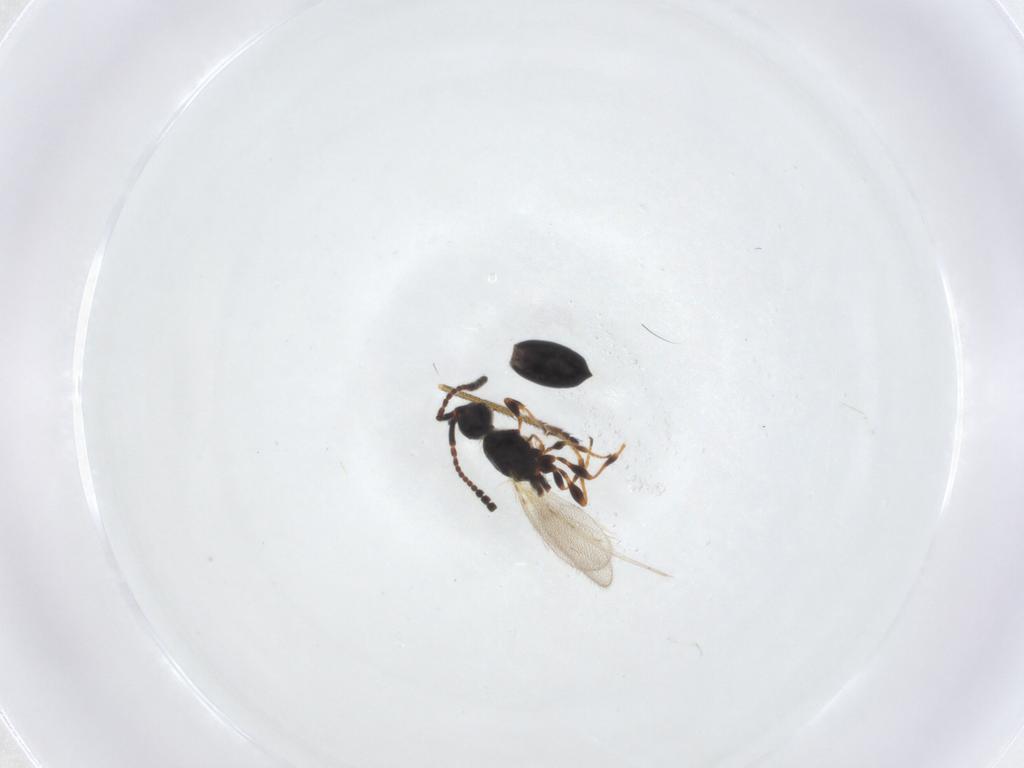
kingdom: Animalia
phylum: Arthropoda
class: Insecta
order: Hymenoptera
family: Diapriidae
